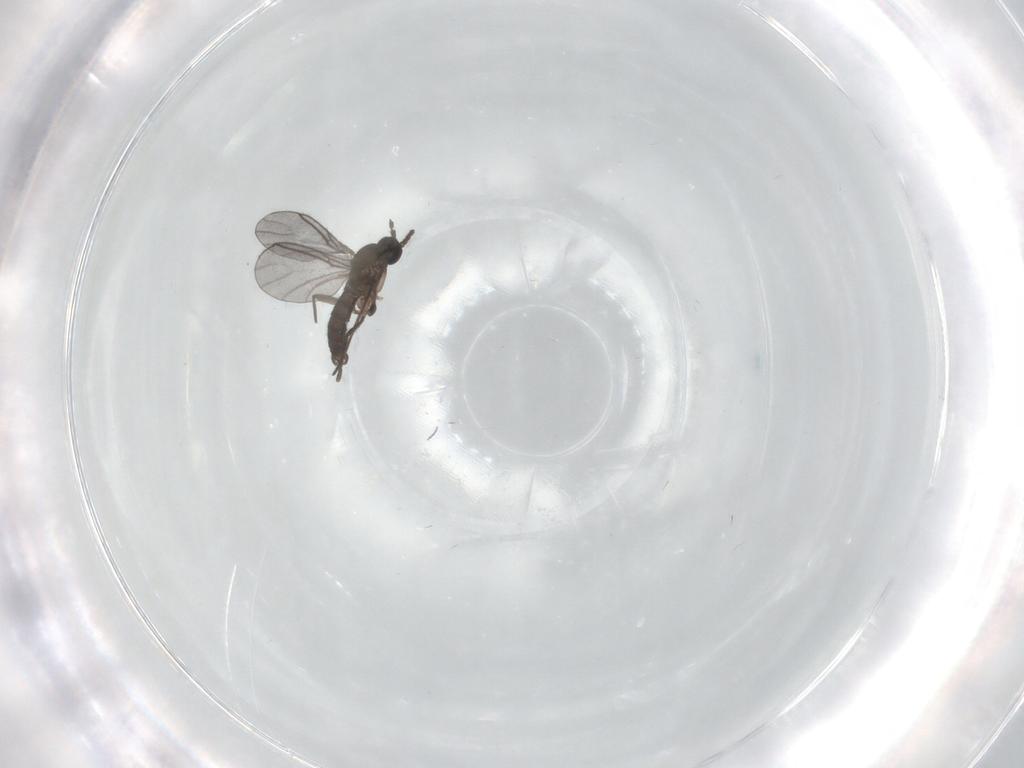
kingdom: Animalia
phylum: Arthropoda
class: Insecta
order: Diptera
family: Cecidomyiidae
